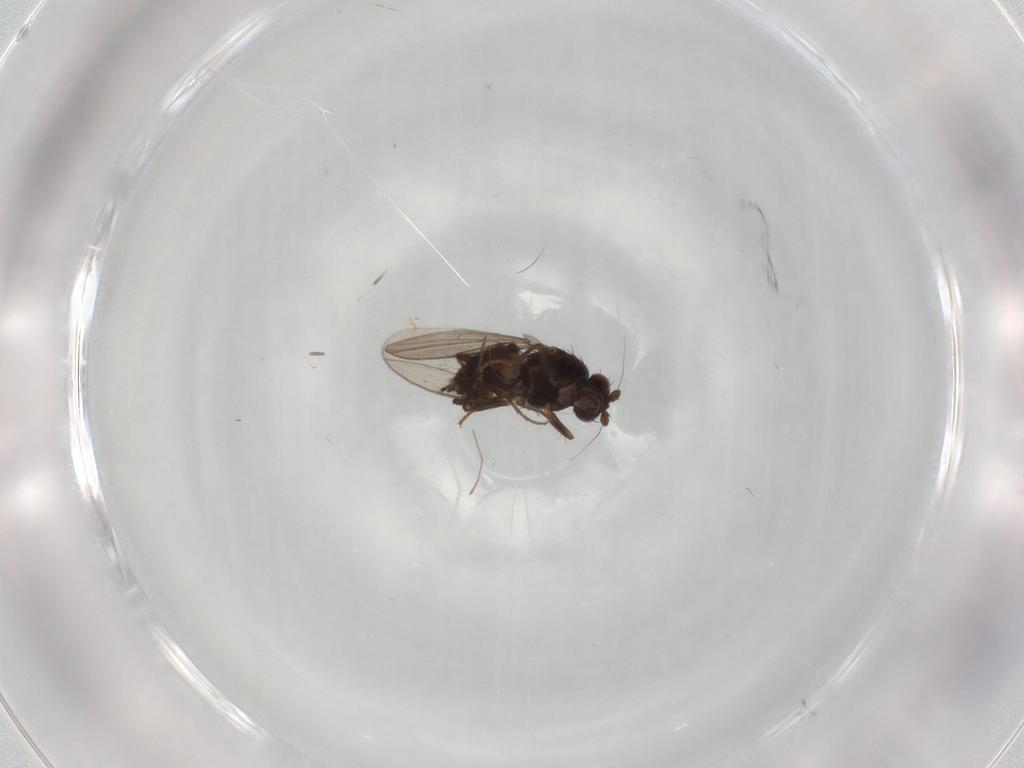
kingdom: Animalia
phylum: Arthropoda
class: Insecta
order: Diptera
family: Sphaeroceridae
